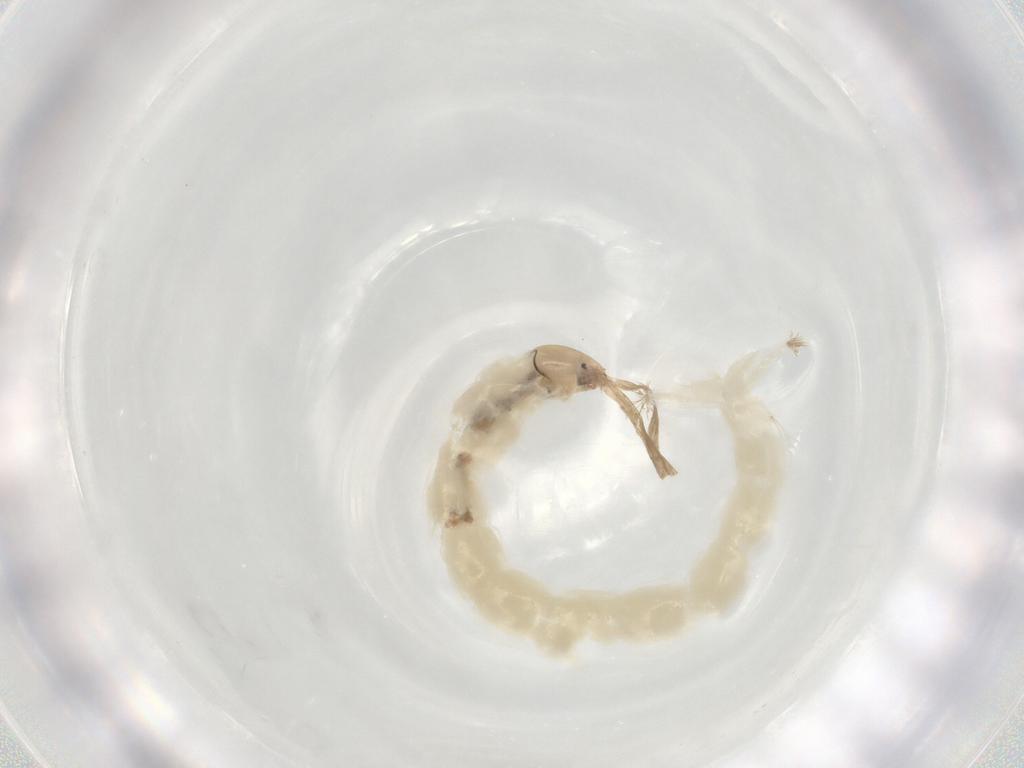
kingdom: Animalia
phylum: Arthropoda
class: Insecta
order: Diptera
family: Chironomidae
